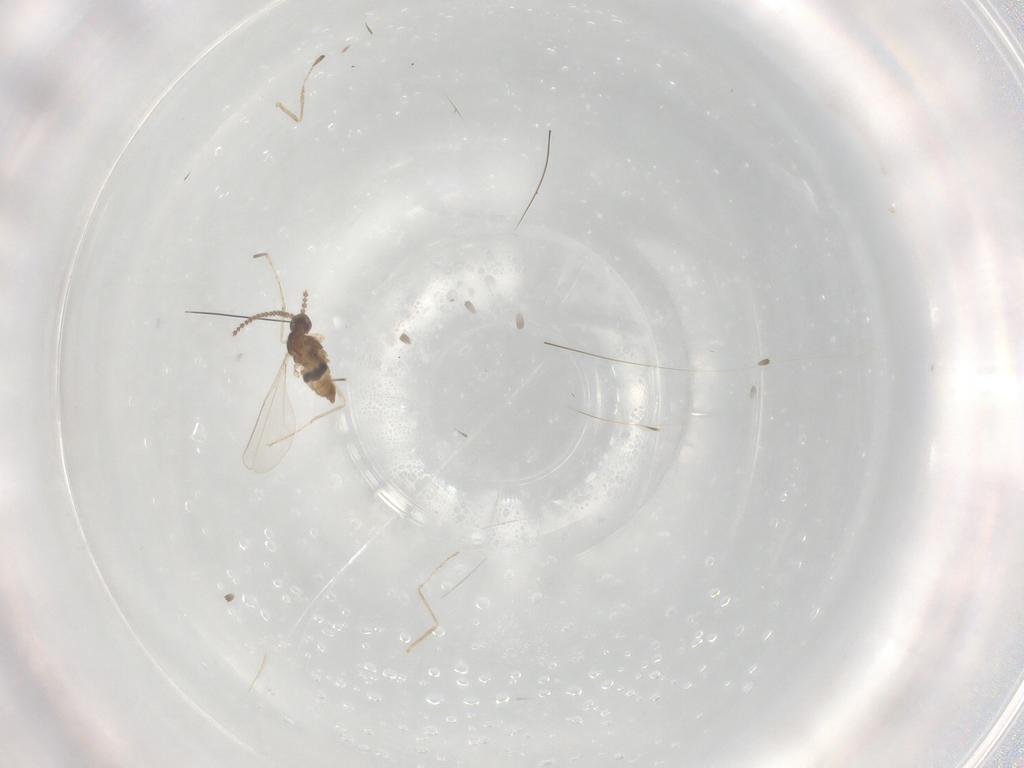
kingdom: Animalia
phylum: Arthropoda
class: Insecta
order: Diptera
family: Cecidomyiidae
